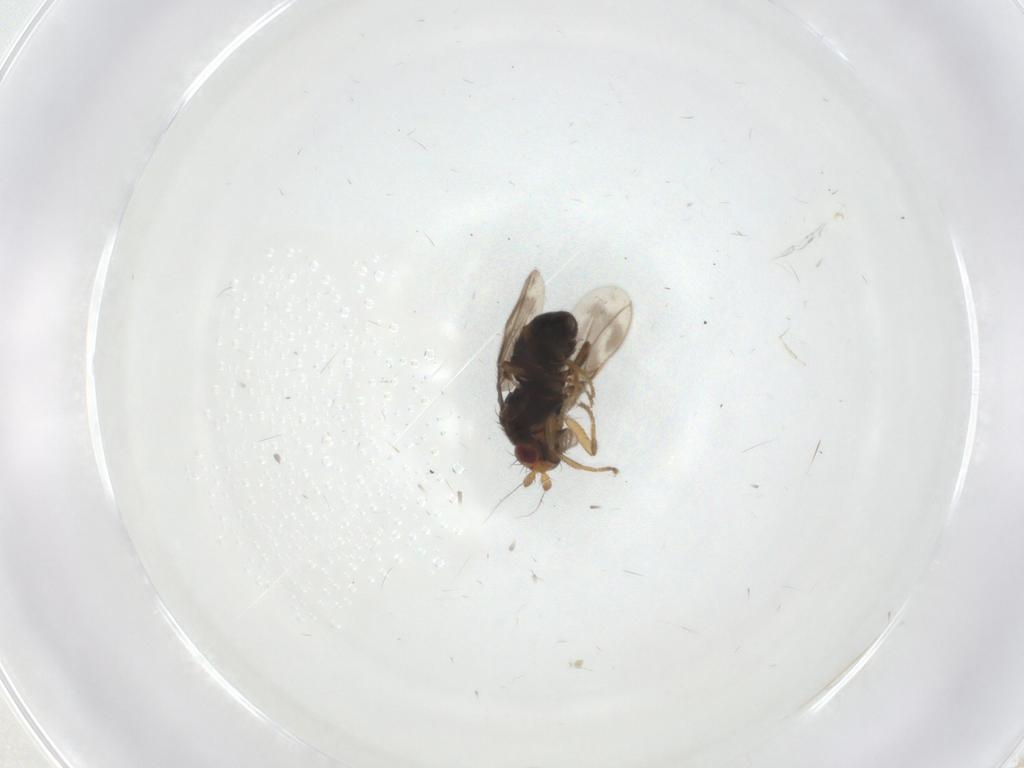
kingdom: Animalia
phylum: Arthropoda
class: Insecta
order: Diptera
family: Sphaeroceridae
